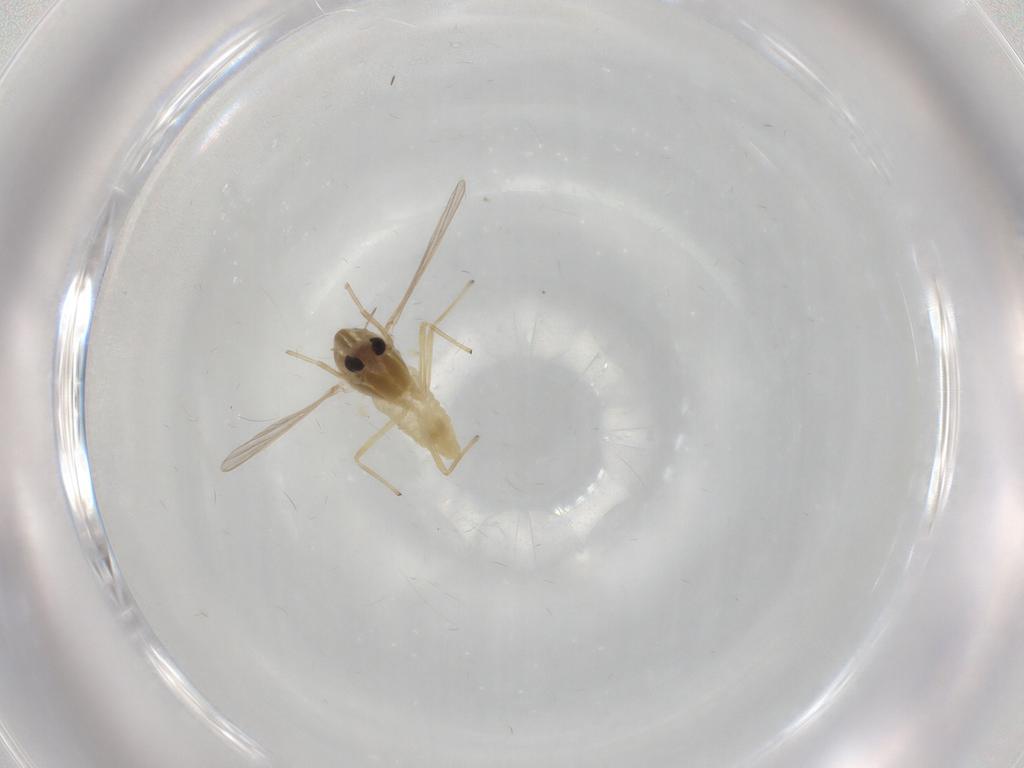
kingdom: Animalia
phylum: Arthropoda
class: Insecta
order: Diptera
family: Chironomidae
